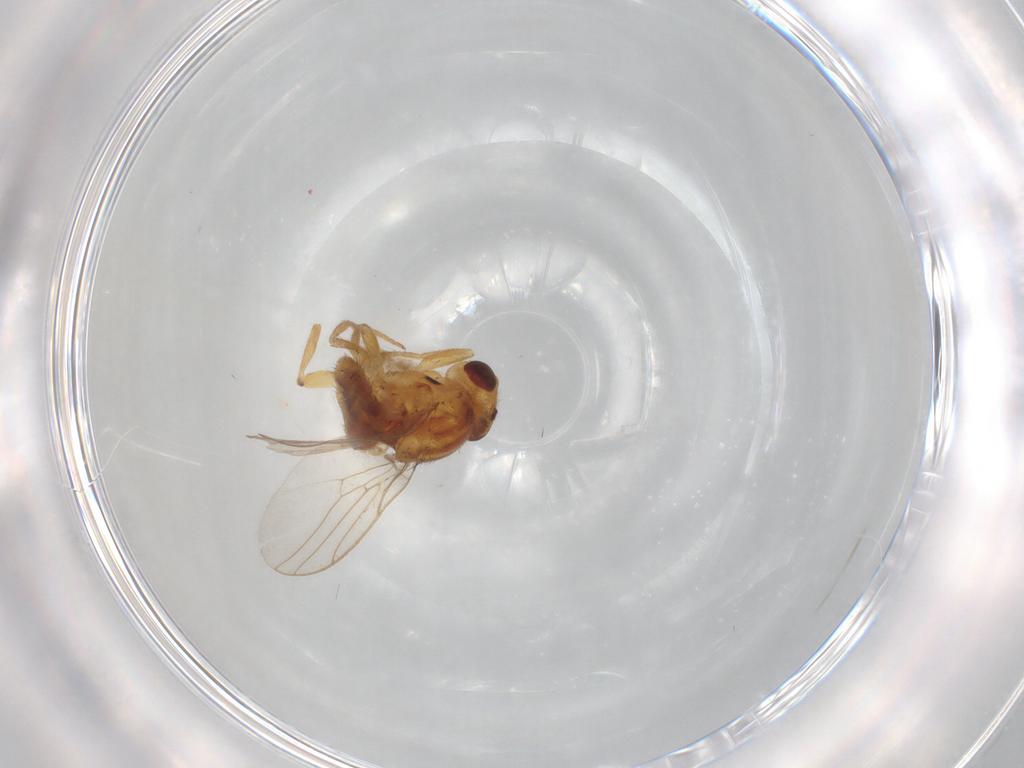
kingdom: Animalia
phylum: Arthropoda
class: Insecta
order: Diptera
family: Chloropidae
